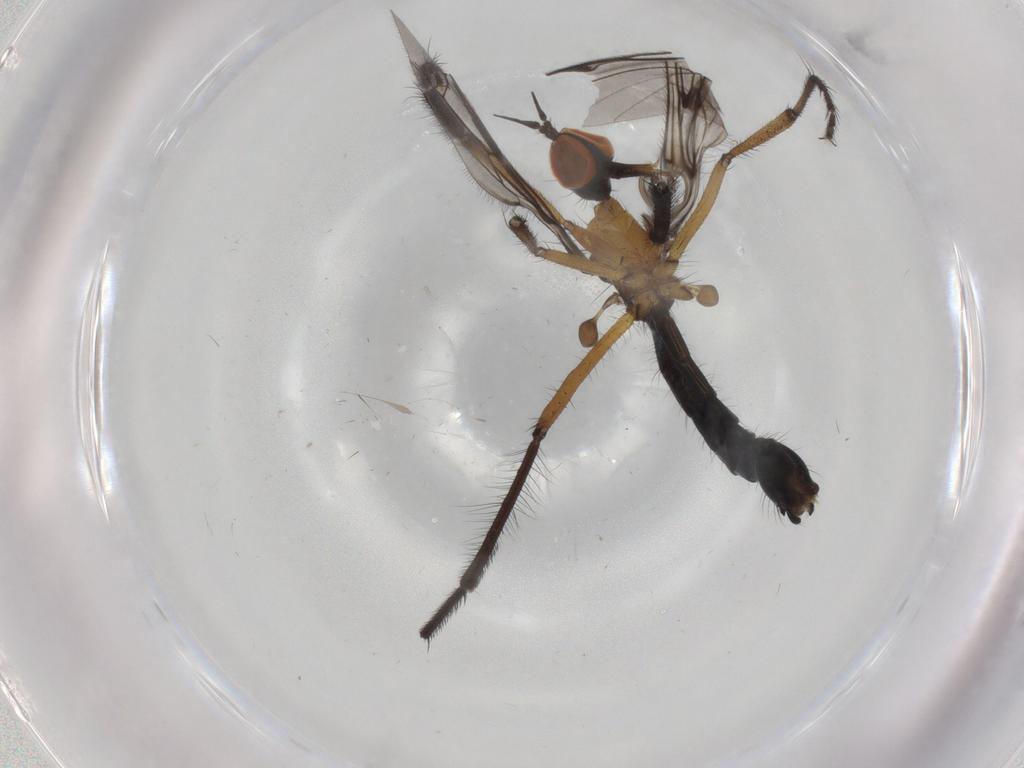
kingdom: Animalia
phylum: Arthropoda
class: Insecta
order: Diptera
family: Empididae
